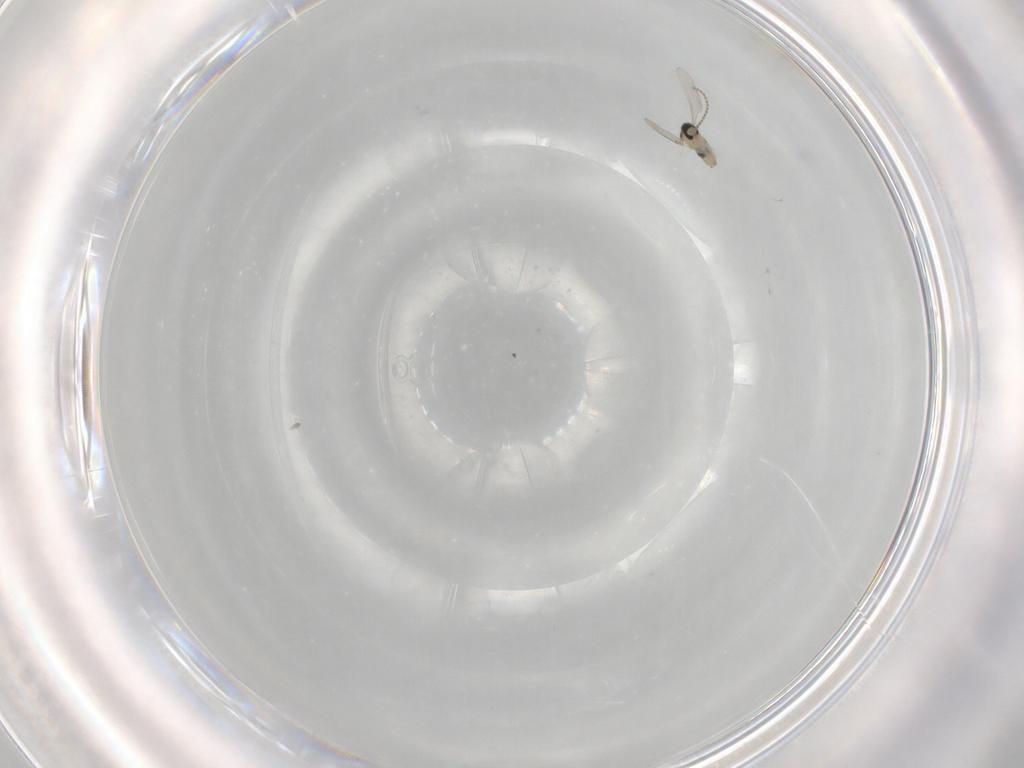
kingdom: Animalia
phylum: Arthropoda
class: Insecta
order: Diptera
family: Cecidomyiidae
